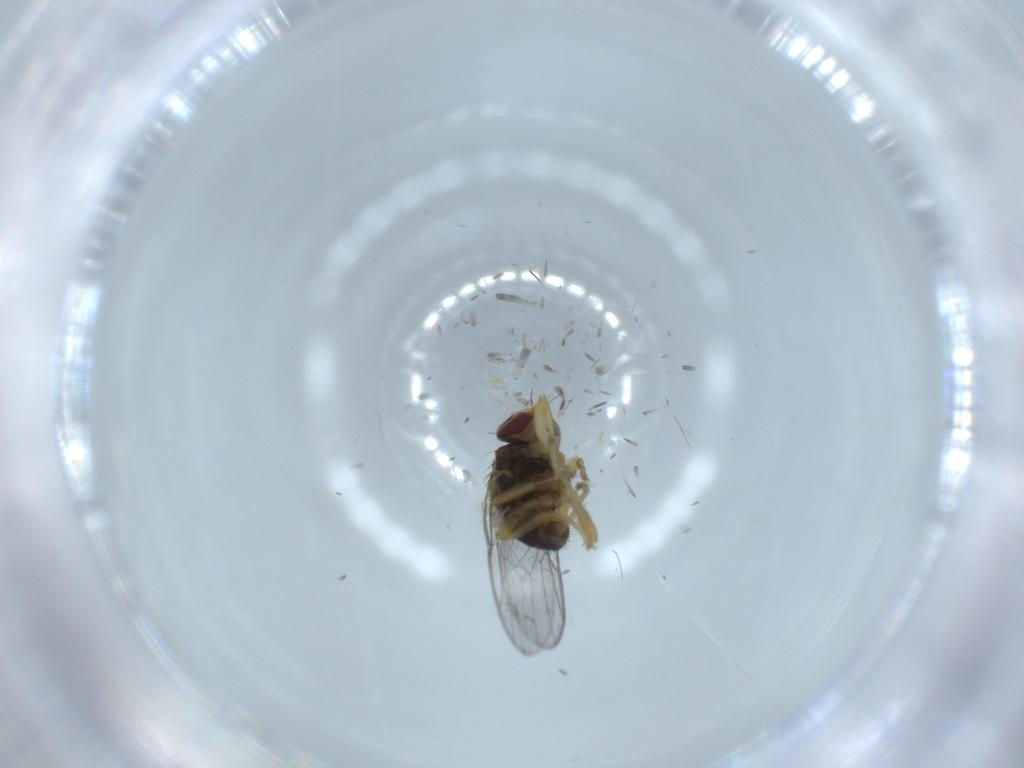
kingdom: Animalia
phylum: Arthropoda
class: Insecta
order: Diptera
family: Chloropidae
